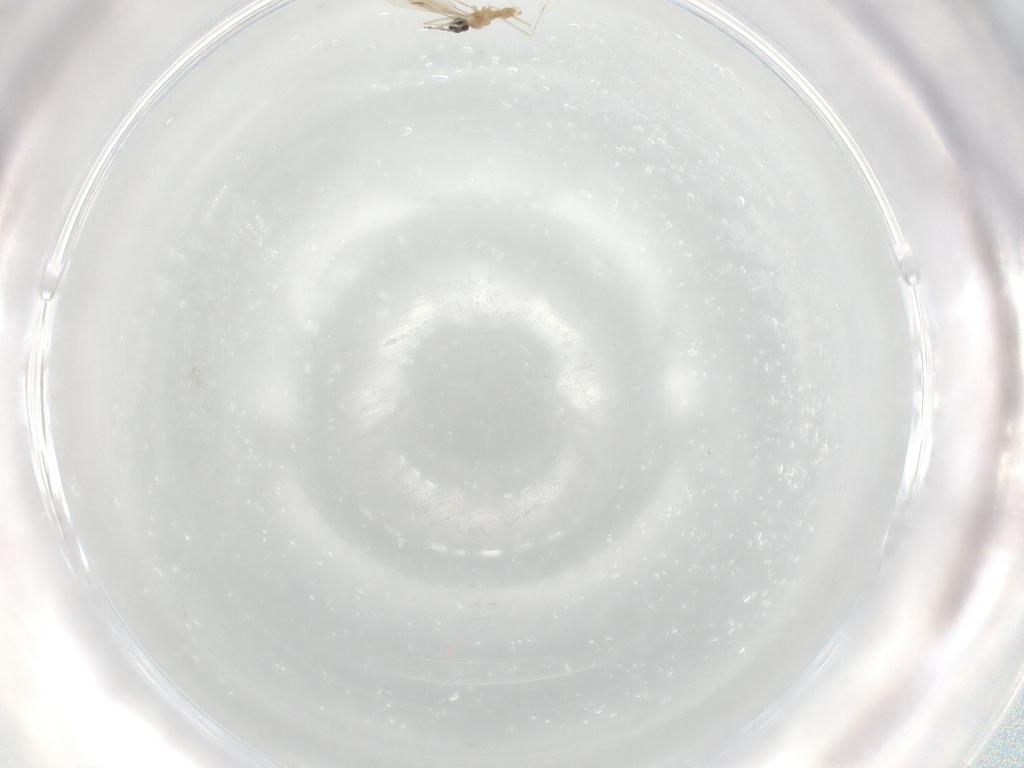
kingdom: Animalia
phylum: Arthropoda
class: Insecta
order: Diptera
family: Cecidomyiidae
